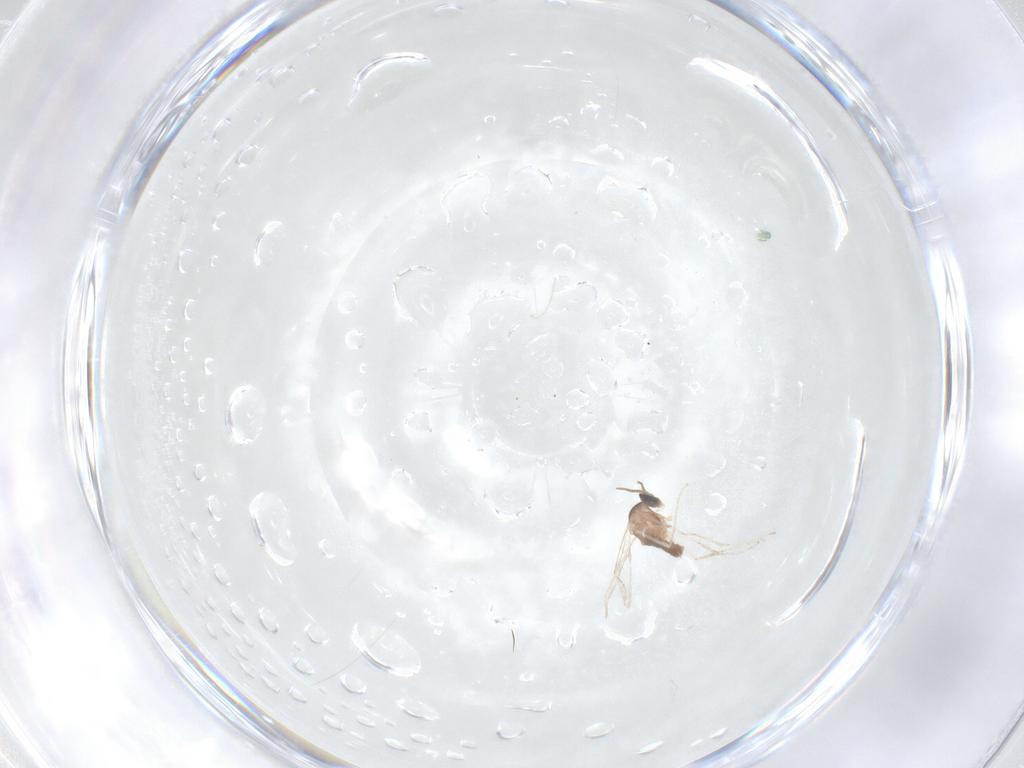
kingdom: Animalia
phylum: Arthropoda
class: Insecta
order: Diptera
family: Cecidomyiidae
